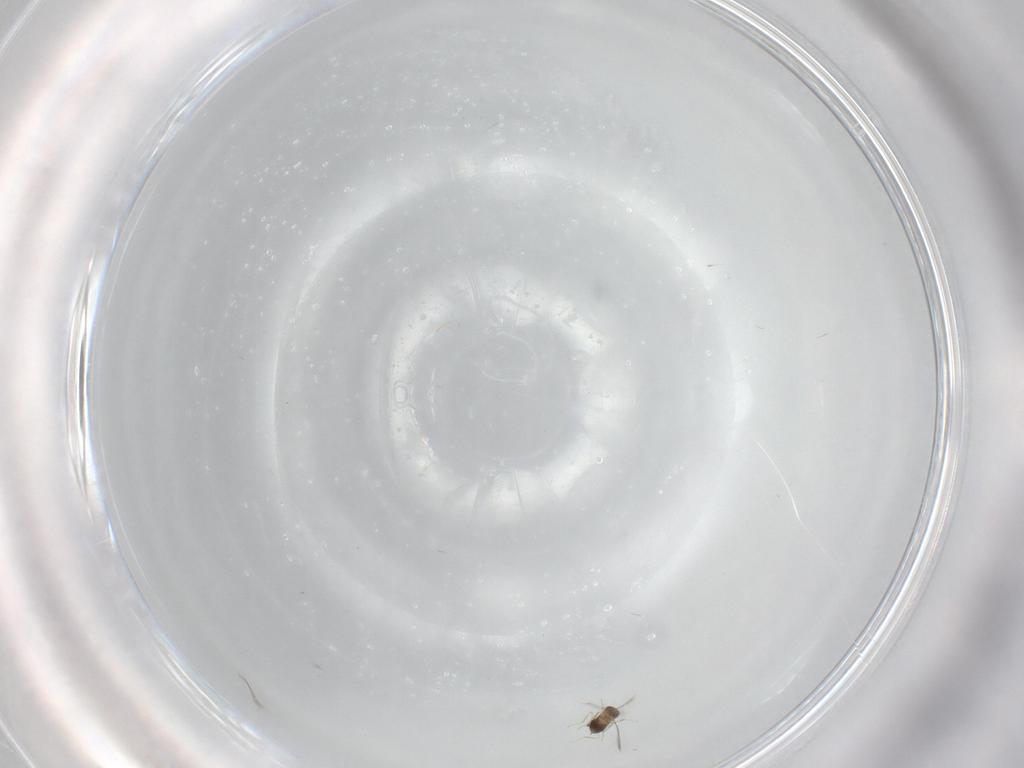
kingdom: Animalia
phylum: Arthropoda
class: Insecta
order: Hymenoptera
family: Mymaridae
